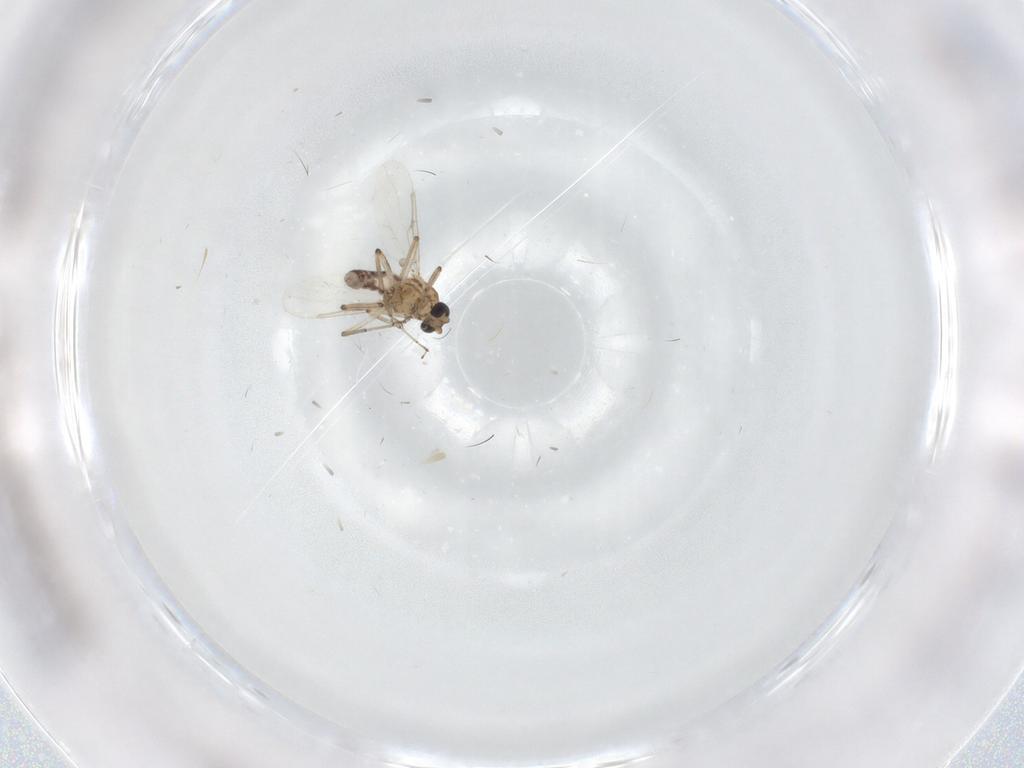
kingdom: Animalia
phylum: Arthropoda
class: Insecta
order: Diptera
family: Ceratopogonidae
